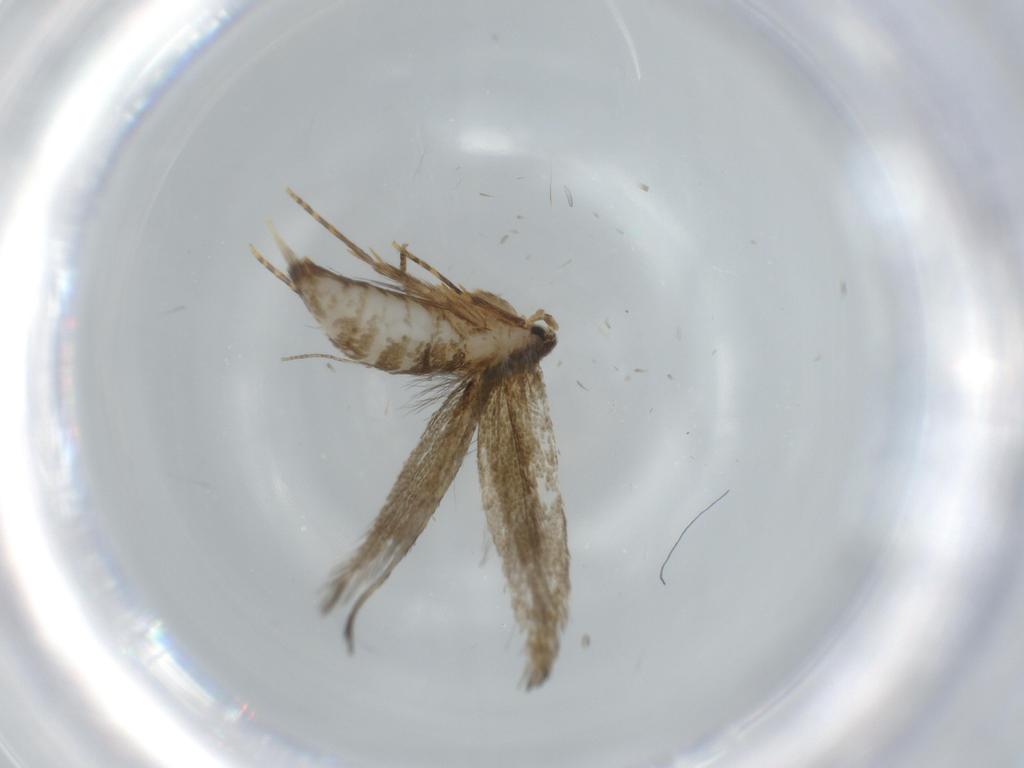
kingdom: Animalia
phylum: Arthropoda
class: Insecta
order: Lepidoptera
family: Tineidae
